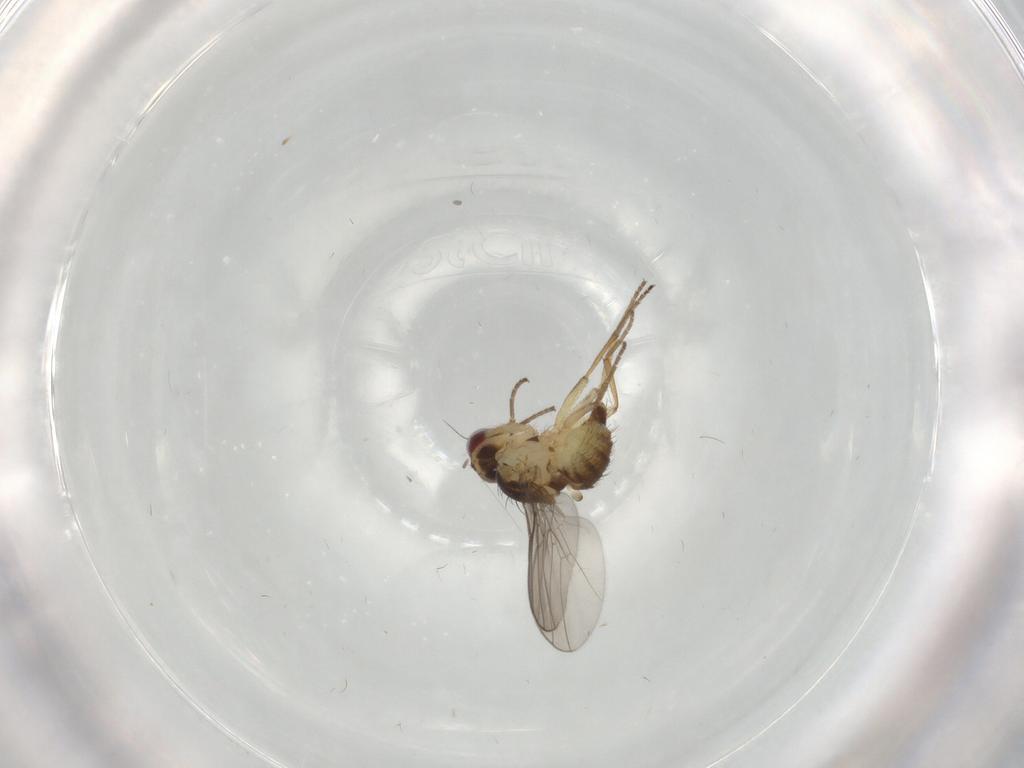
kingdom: Animalia
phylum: Arthropoda
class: Insecta
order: Diptera
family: Agromyzidae
